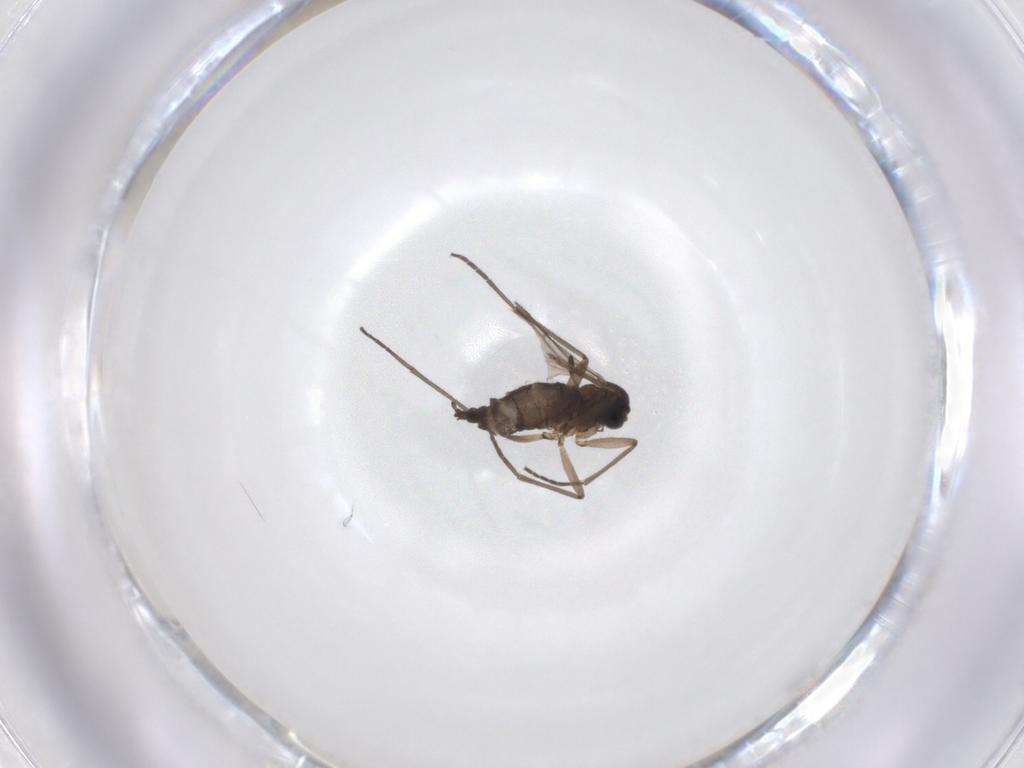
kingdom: Animalia
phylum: Arthropoda
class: Insecta
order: Diptera
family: Sciaridae
